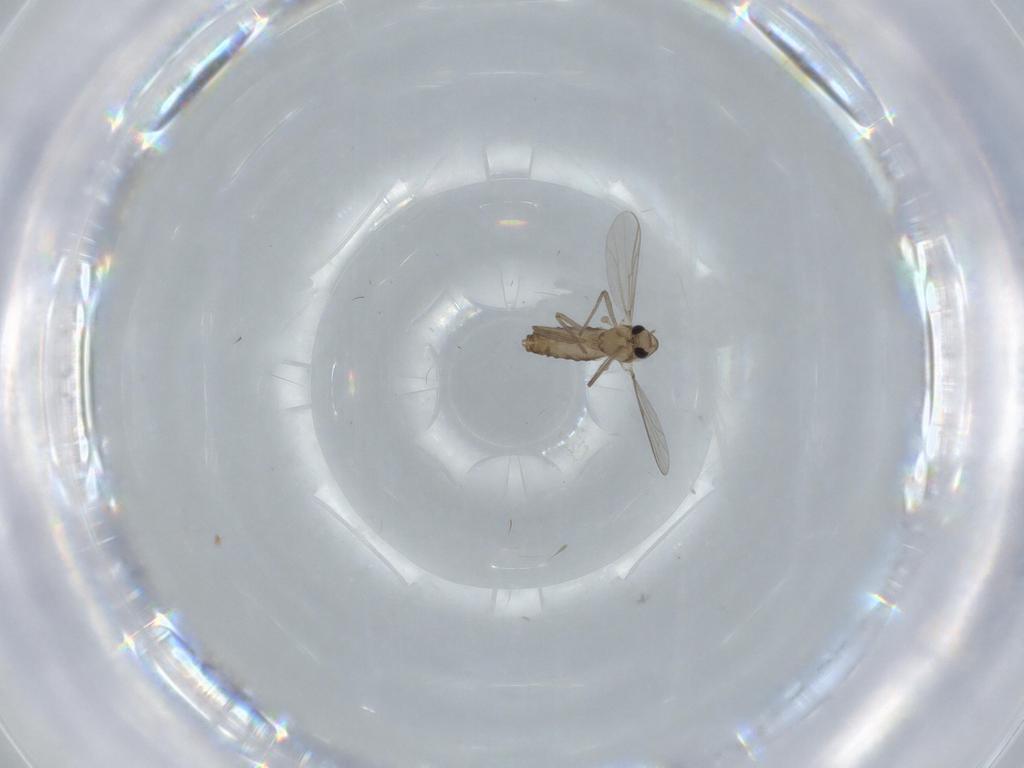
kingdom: Animalia
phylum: Arthropoda
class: Insecta
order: Diptera
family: Chironomidae
